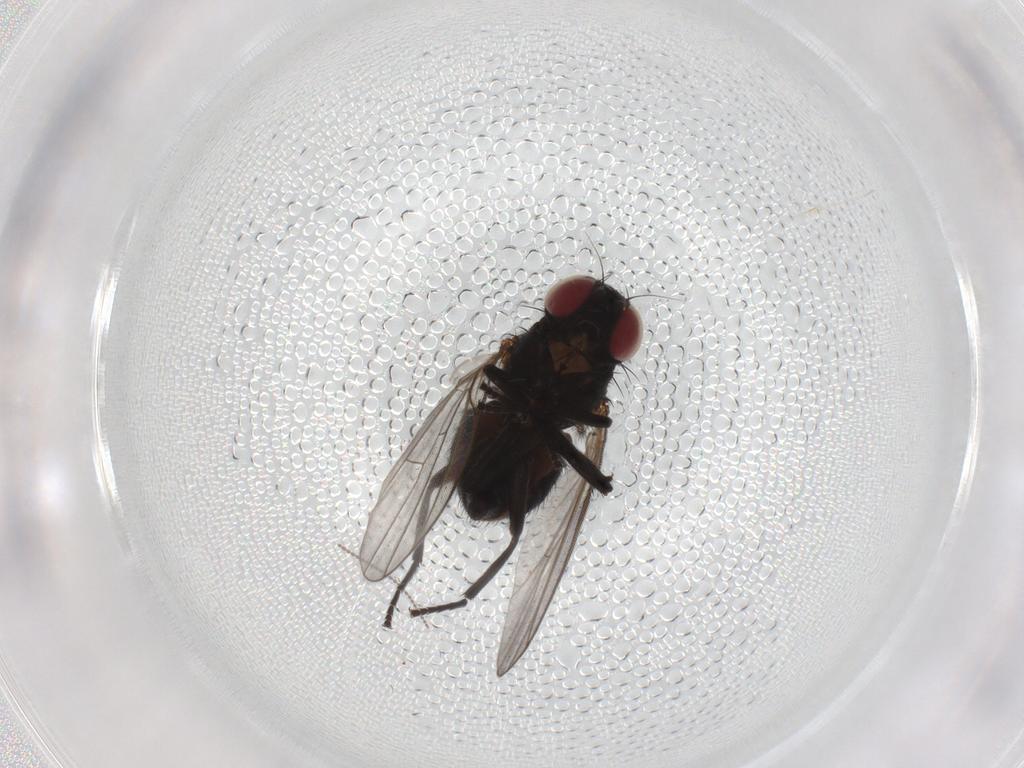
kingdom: Animalia
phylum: Arthropoda
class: Insecta
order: Diptera
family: Agromyzidae
